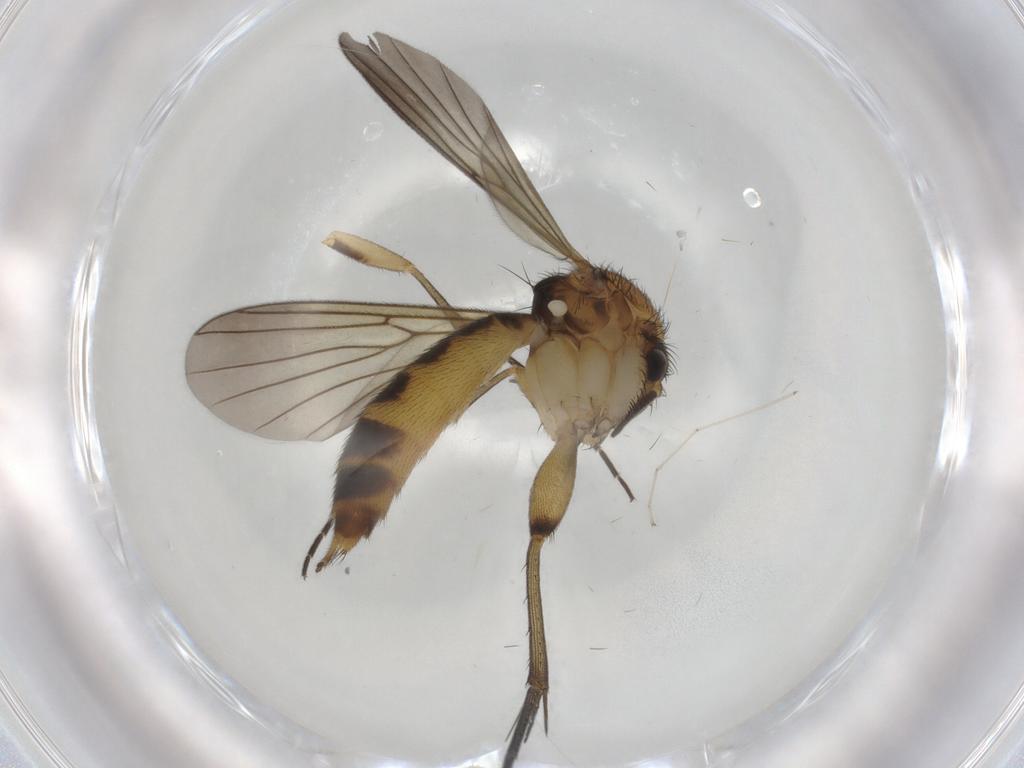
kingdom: Animalia
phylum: Arthropoda
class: Insecta
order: Diptera
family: Mycetophilidae
